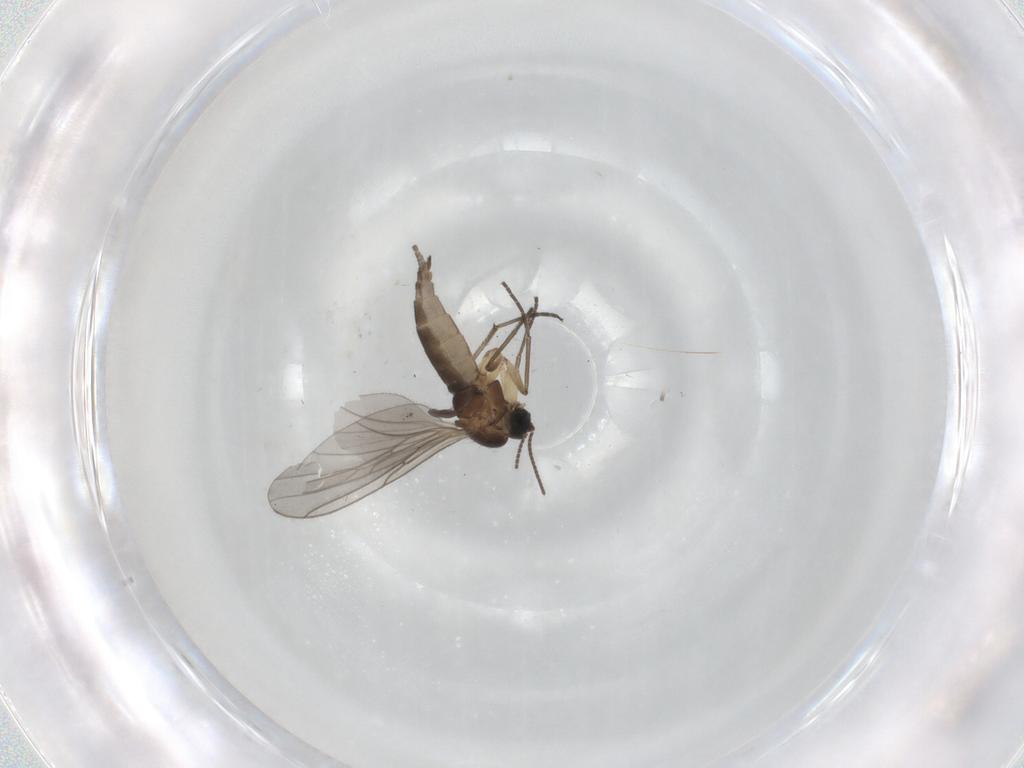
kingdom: Animalia
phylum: Arthropoda
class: Insecta
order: Diptera
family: Sciaridae
